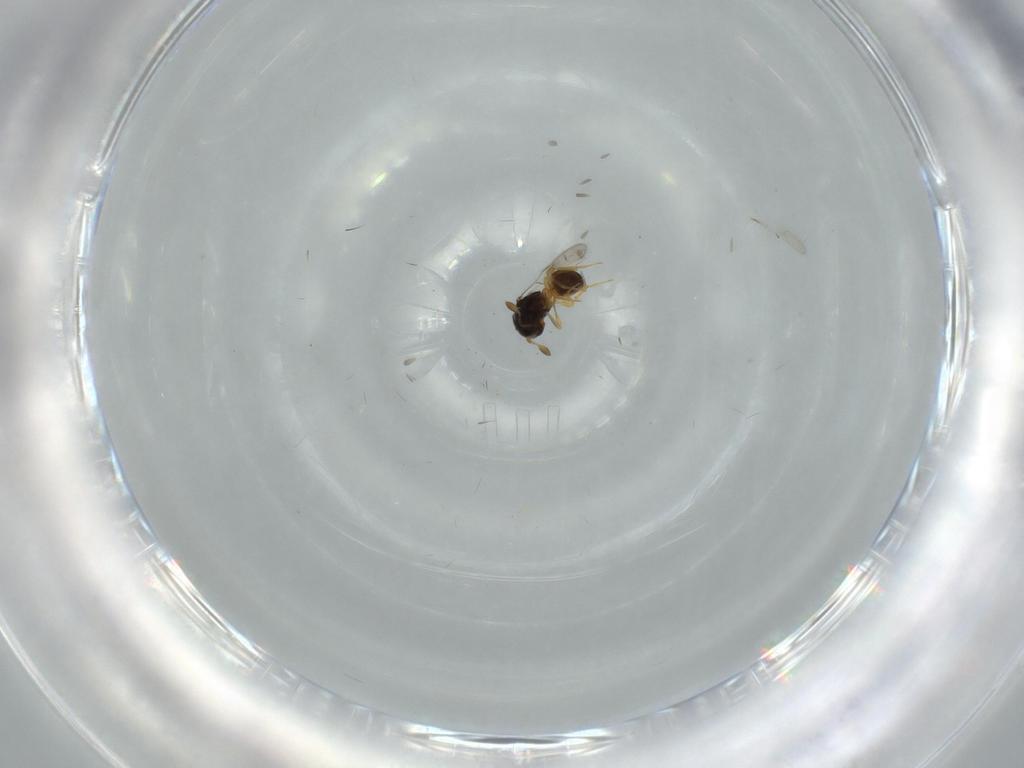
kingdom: Animalia
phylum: Arthropoda
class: Insecta
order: Hymenoptera
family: Scelionidae
